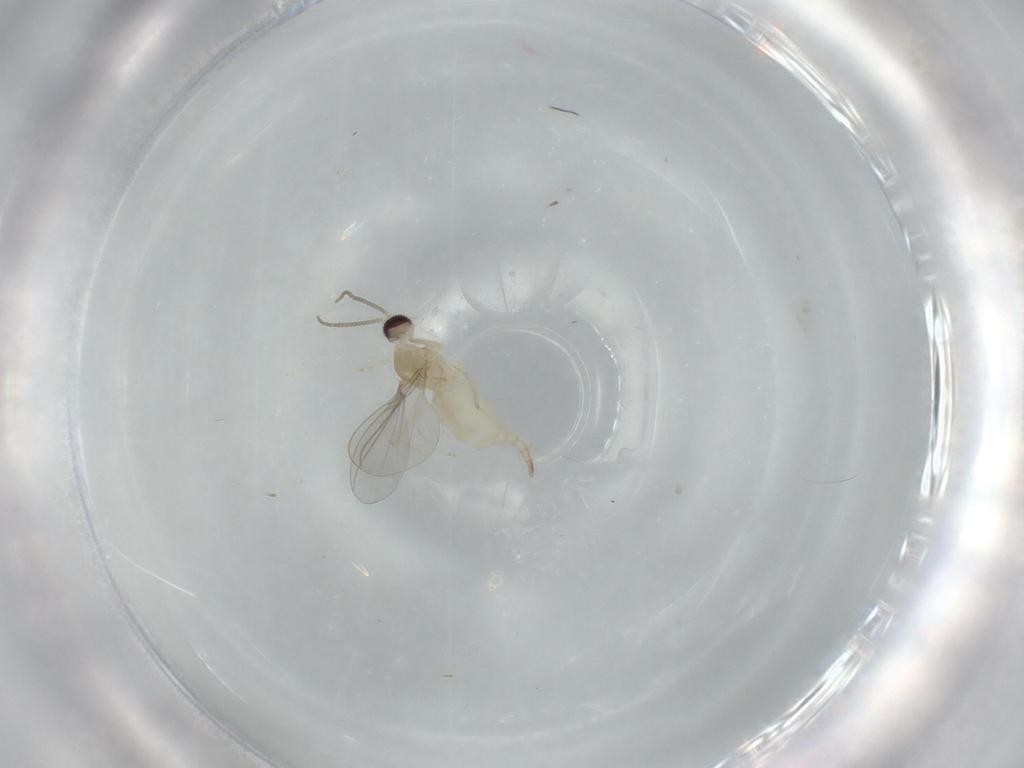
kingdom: Animalia
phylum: Arthropoda
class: Insecta
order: Diptera
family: Cecidomyiidae
